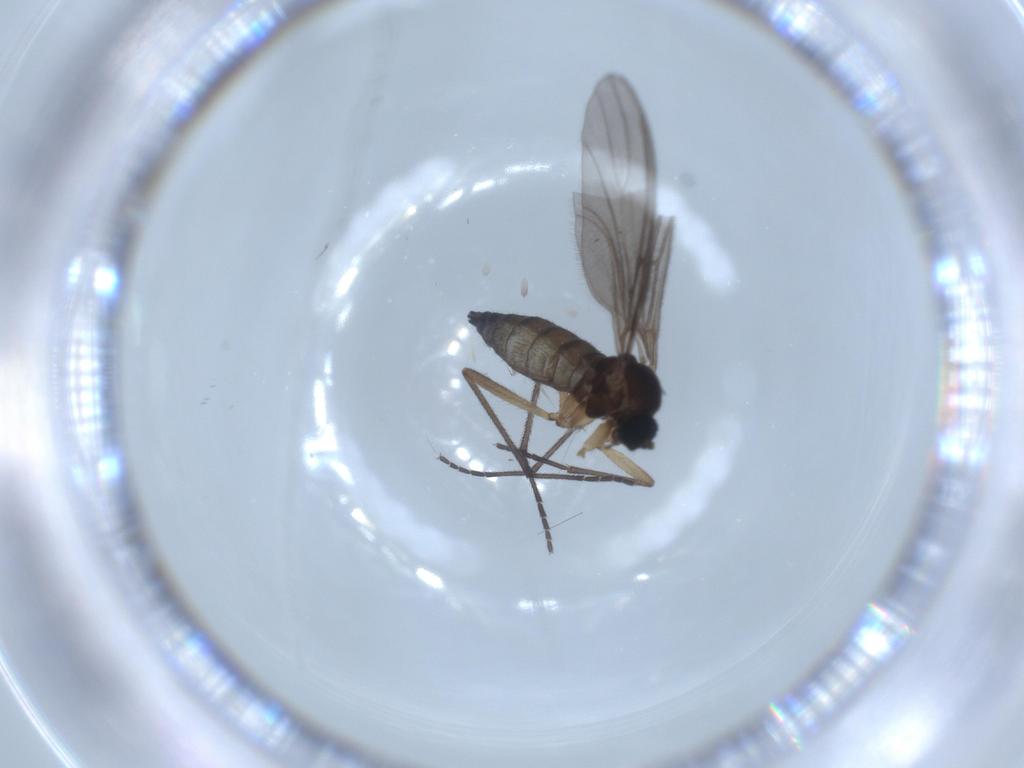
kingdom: Animalia
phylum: Arthropoda
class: Insecta
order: Diptera
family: Sciaridae
